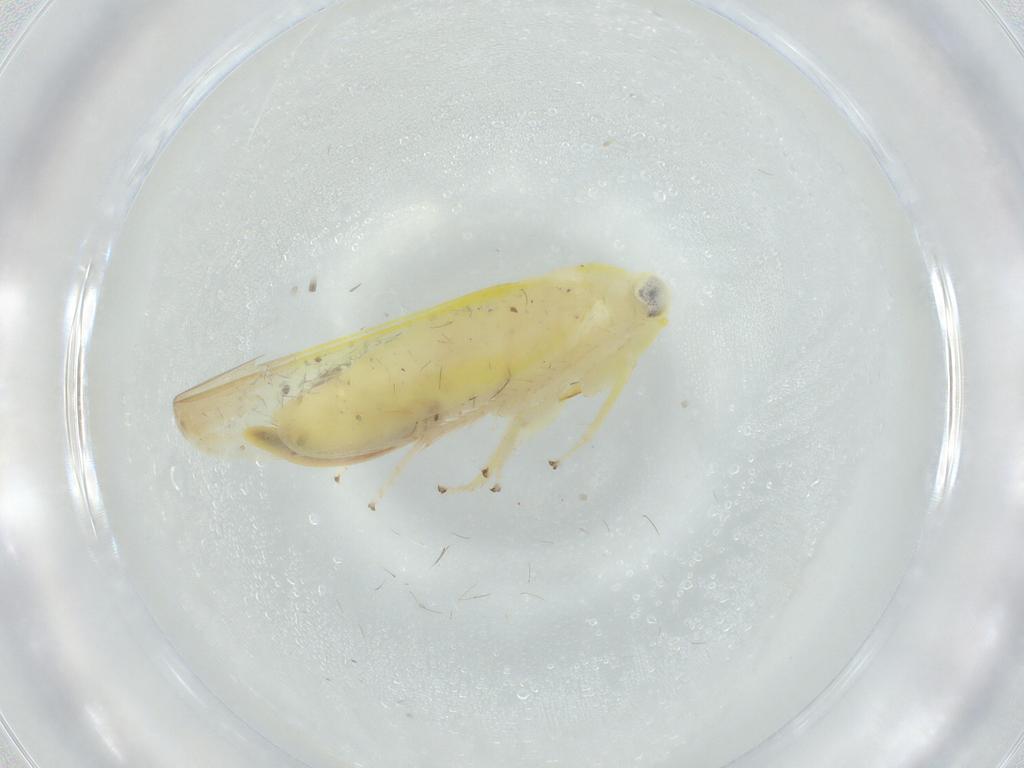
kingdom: Animalia
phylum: Arthropoda
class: Insecta
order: Hemiptera
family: Cicadellidae
